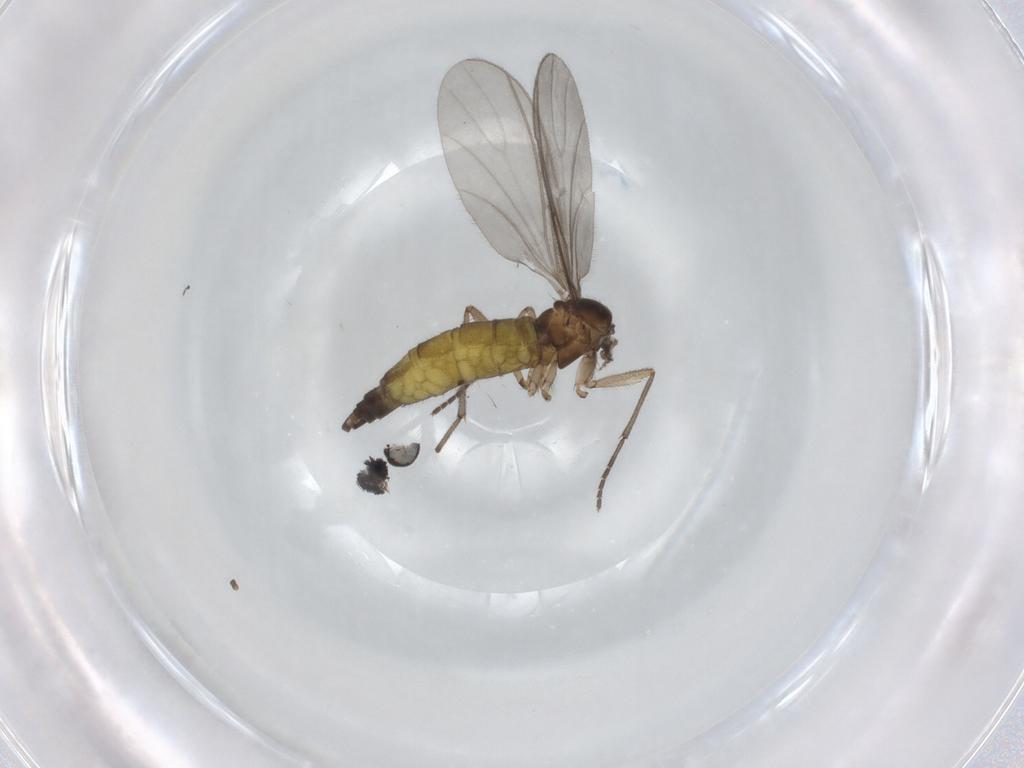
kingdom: Animalia
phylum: Arthropoda
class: Insecta
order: Diptera
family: Sciaridae
